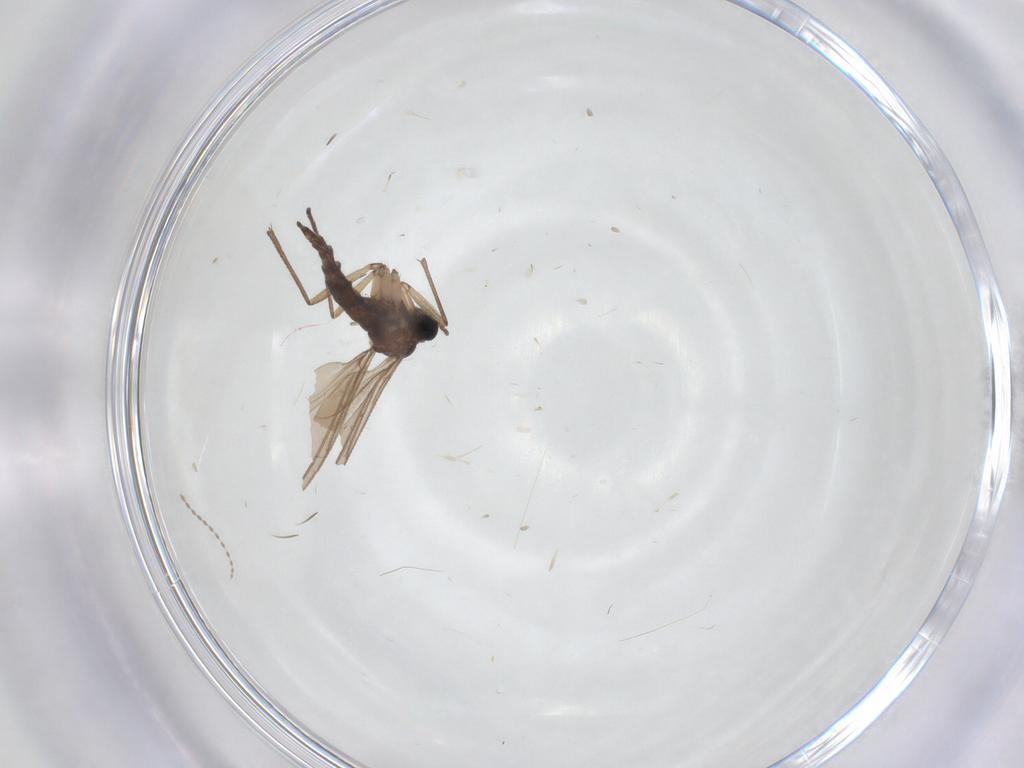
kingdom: Animalia
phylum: Arthropoda
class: Insecta
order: Diptera
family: Sciaridae
